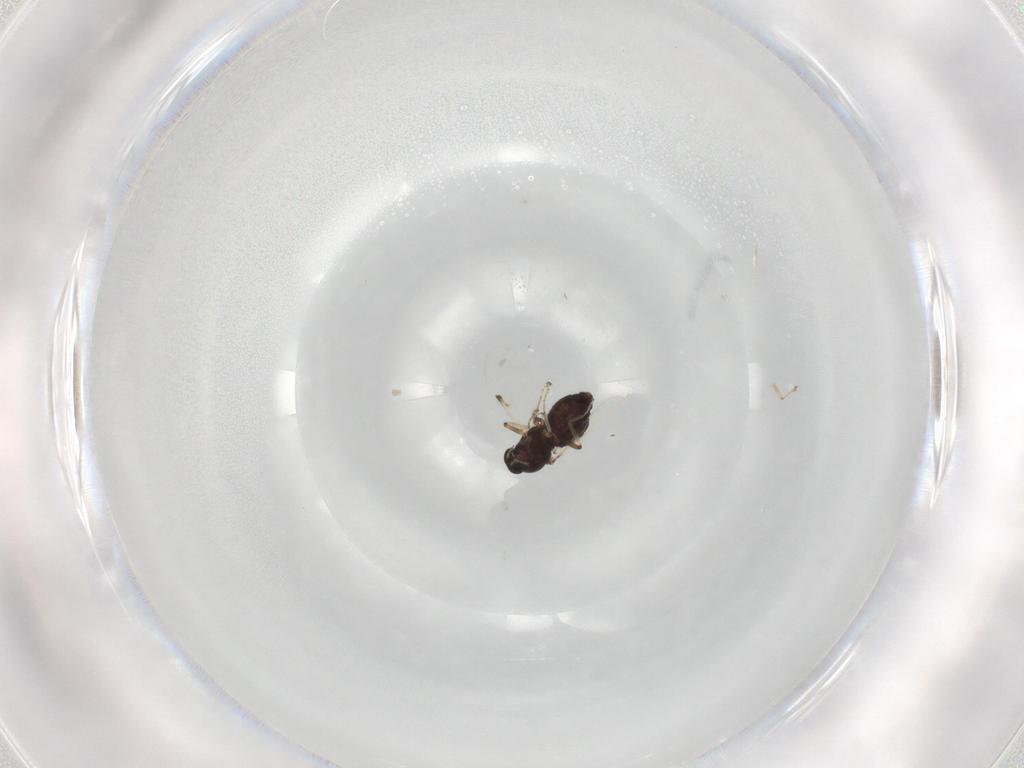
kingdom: Animalia
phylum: Arthropoda
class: Insecta
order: Diptera
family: Ceratopogonidae
